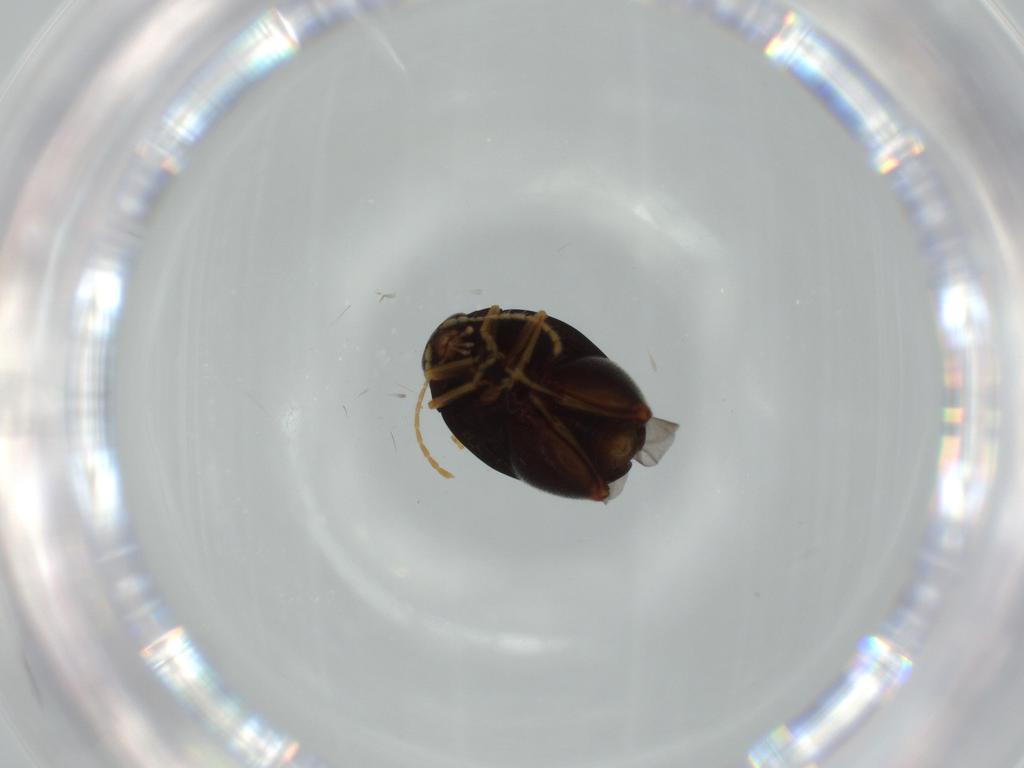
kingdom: Animalia
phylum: Arthropoda
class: Insecta
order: Coleoptera
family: Chrysomelidae
